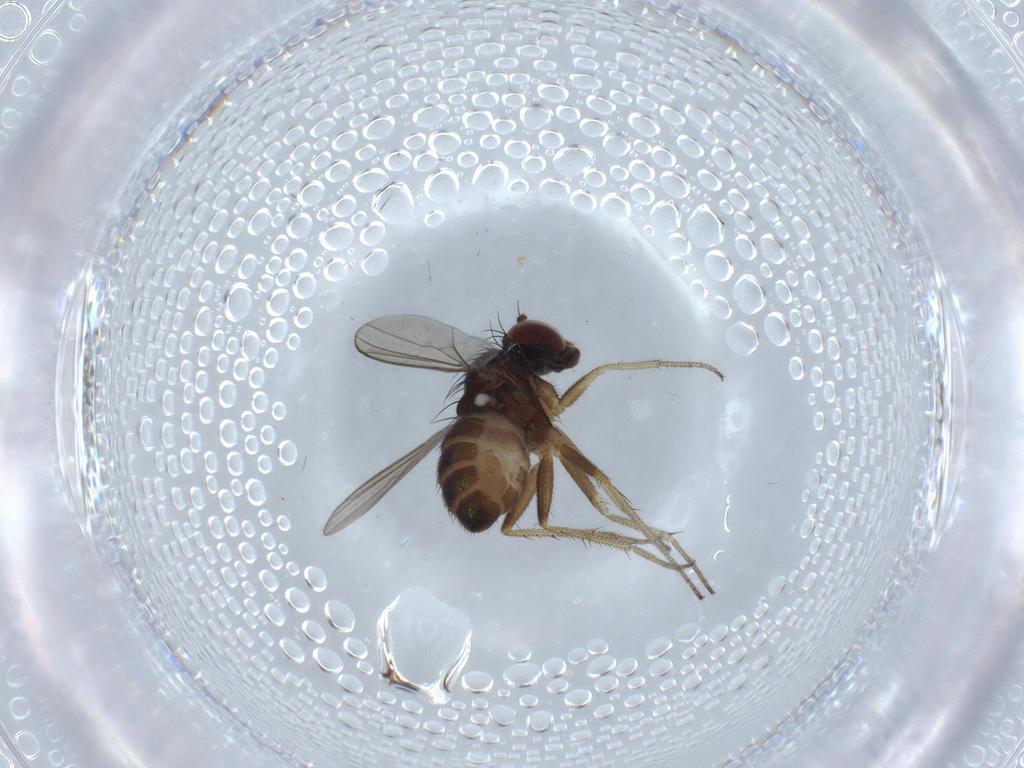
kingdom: Animalia
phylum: Arthropoda
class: Insecta
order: Diptera
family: Dolichopodidae
